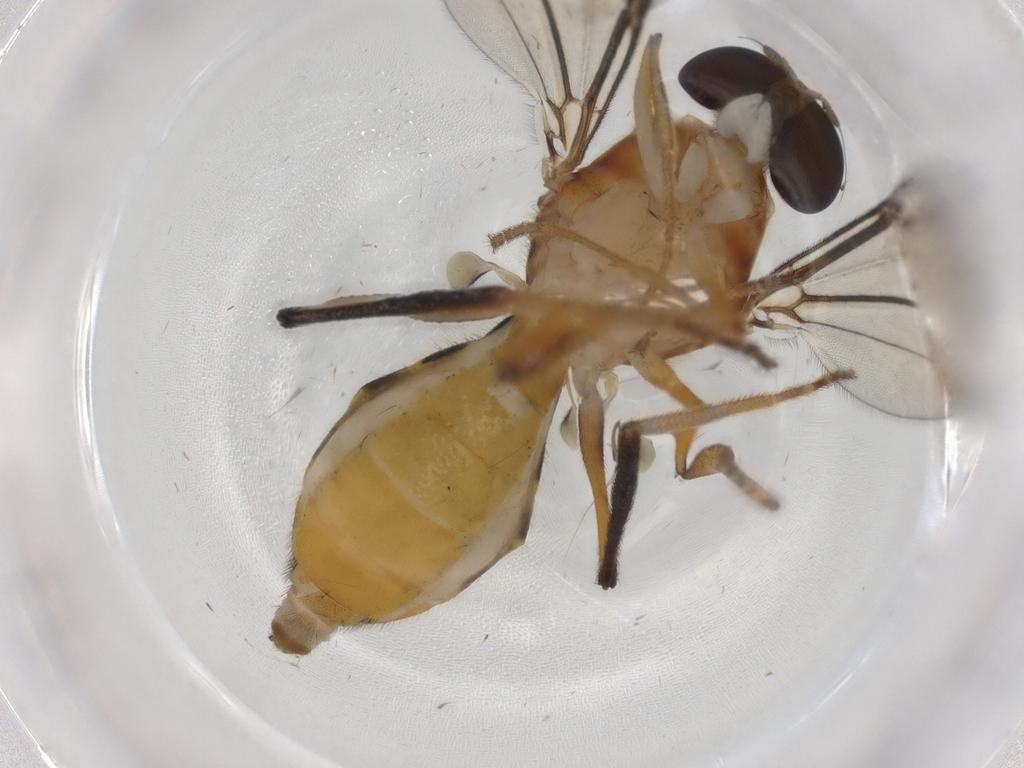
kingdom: Animalia
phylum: Arthropoda
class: Insecta
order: Diptera
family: Chironomidae
